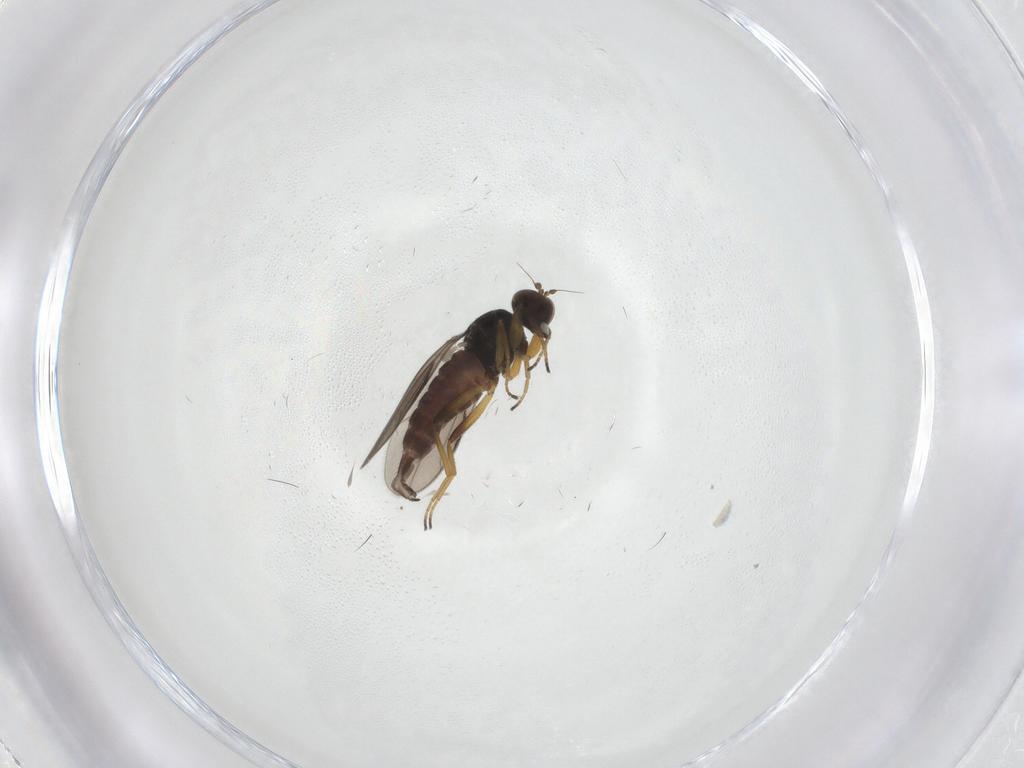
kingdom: Animalia
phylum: Arthropoda
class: Insecta
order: Diptera
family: Hybotidae
